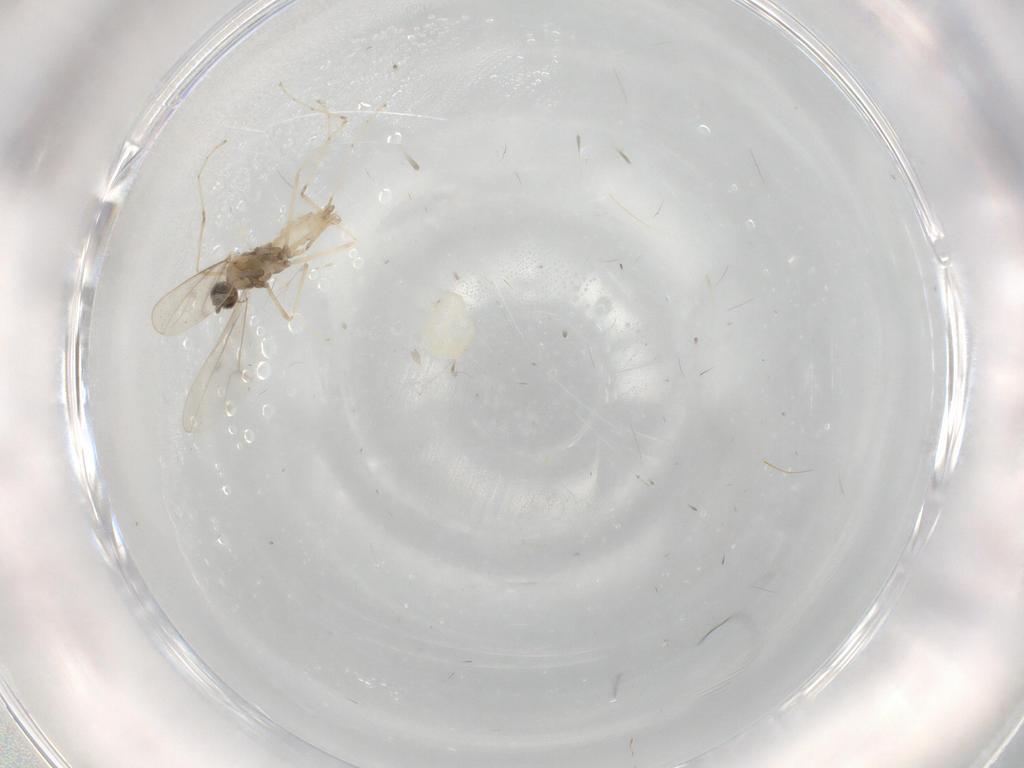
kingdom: Animalia
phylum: Arthropoda
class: Insecta
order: Diptera
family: Cecidomyiidae
